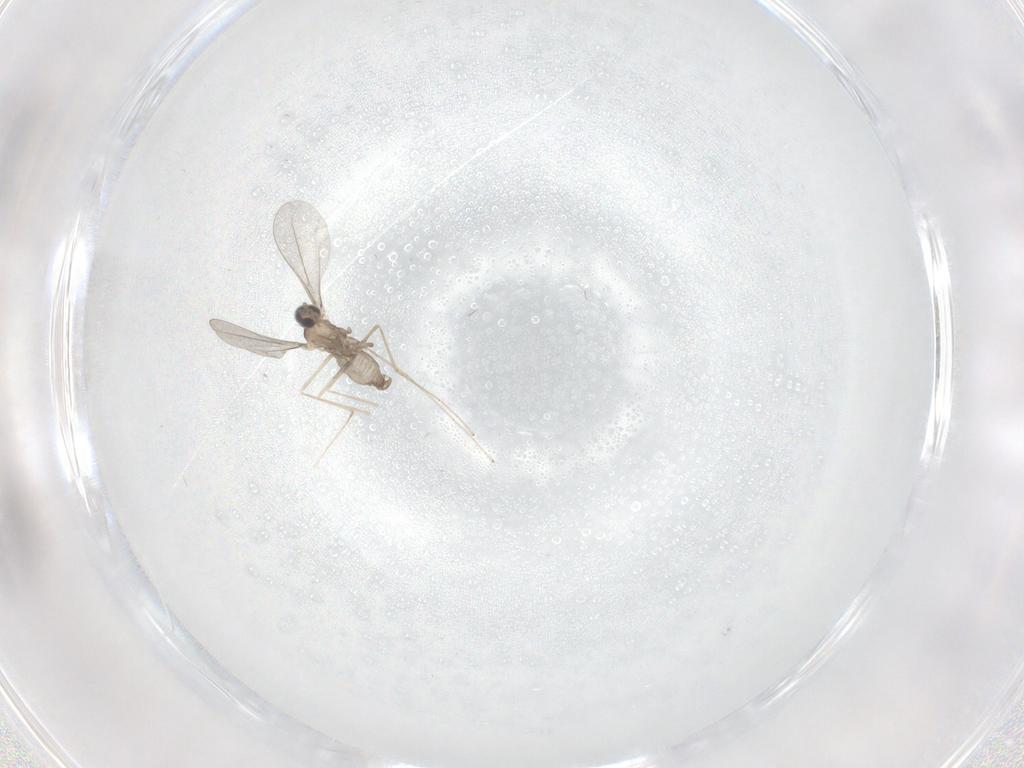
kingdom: Animalia
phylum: Arthropoda
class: Insecta
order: Diptera
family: Cecidomyiidae
